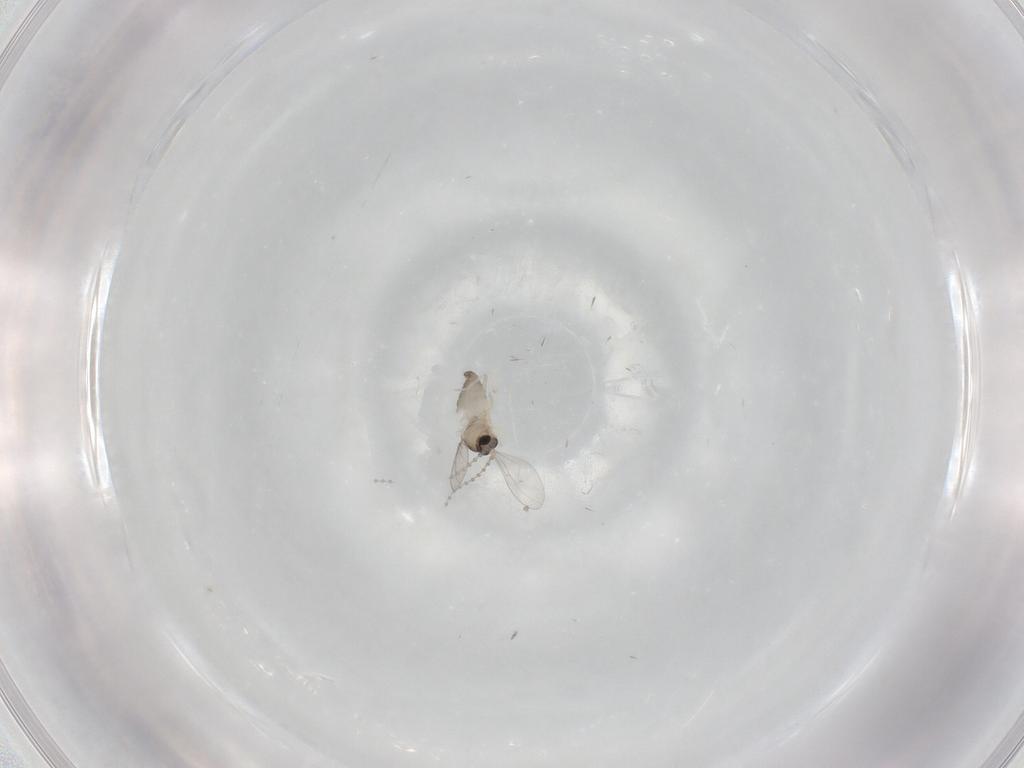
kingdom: Animalia
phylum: Arthropoda
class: Insecta
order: Diptera
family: Cecidomyiidae
